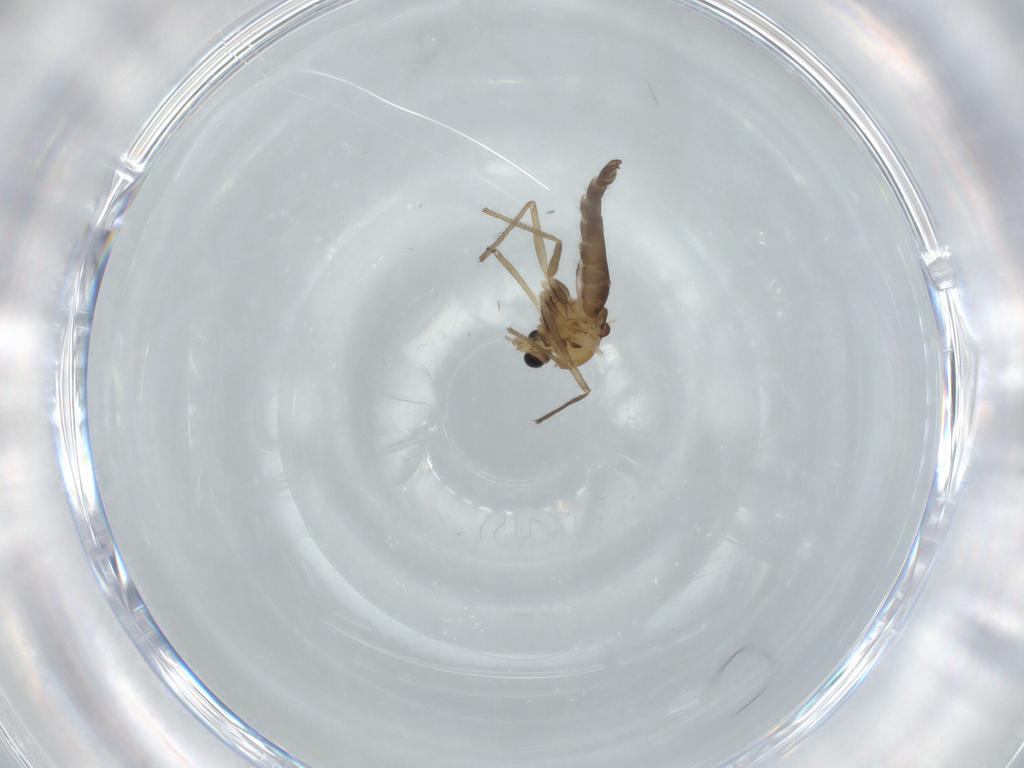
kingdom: Animalia
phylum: Arthropoda
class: Insecta
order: Diptera
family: Chironomidae
